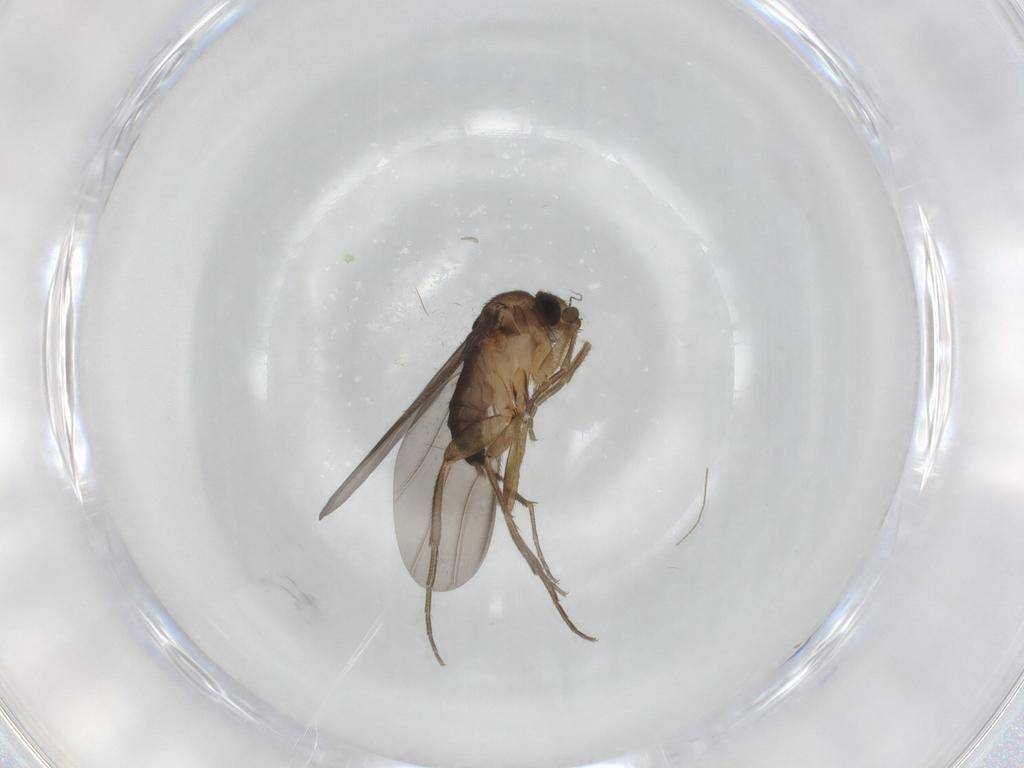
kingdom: Animalia
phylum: Arthropoda
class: Insecta
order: Diptera
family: Phoridae
